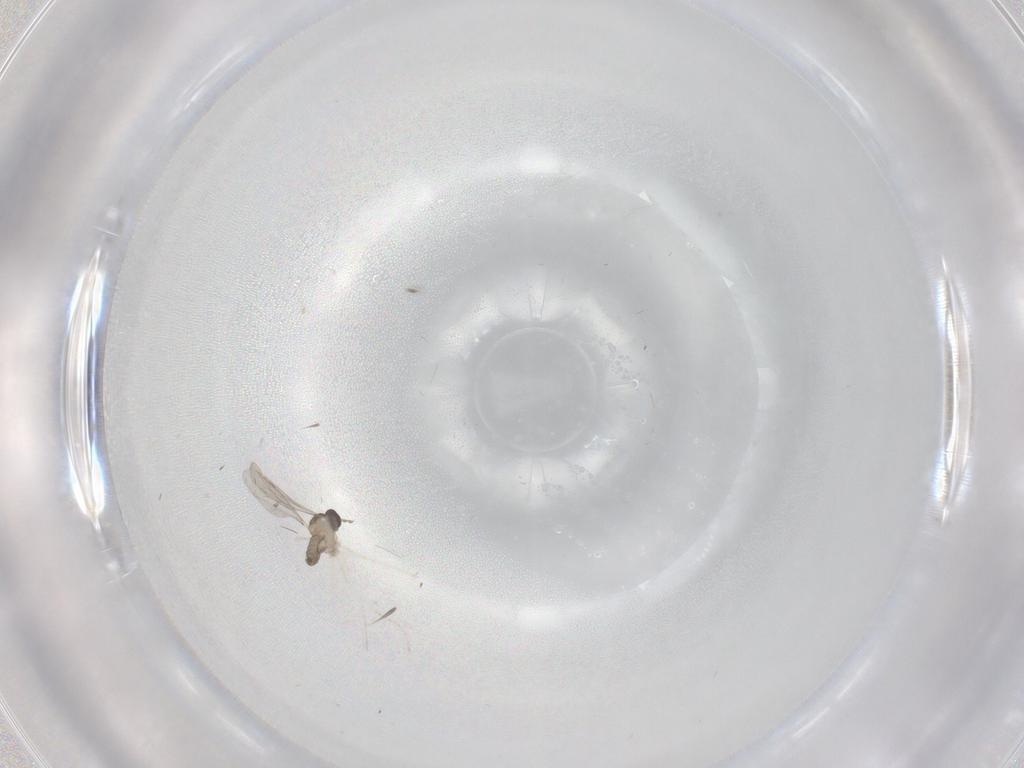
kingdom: Animalia
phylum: Arthropoda
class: Insecta
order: Diptera
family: Cecidomyiidae
